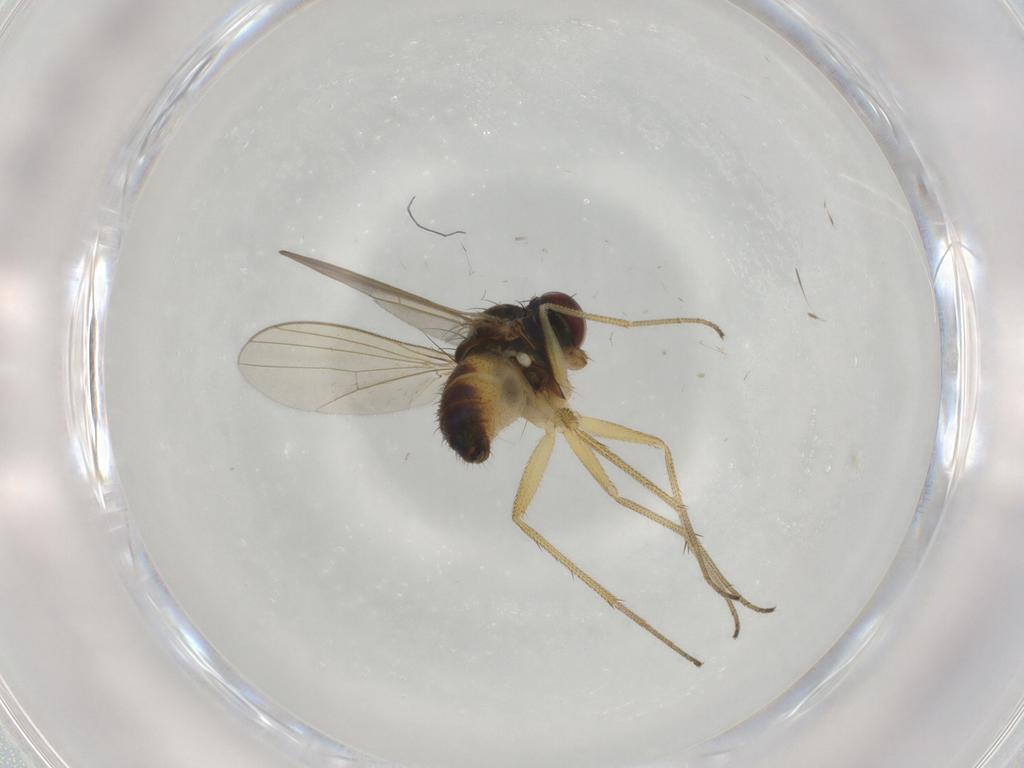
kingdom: Animalia
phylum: Arthropoda
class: Insecta
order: Diptera
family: Dolichopodidae
